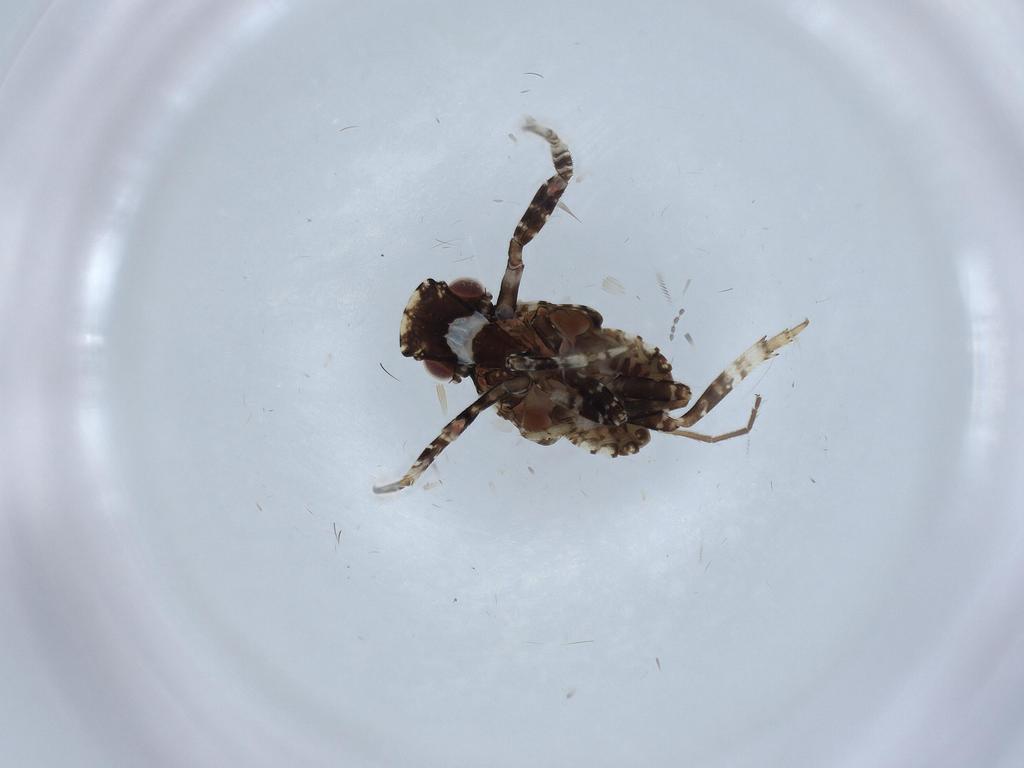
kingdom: Animalia
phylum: Arthropoda
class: Insecta
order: Hemiptera
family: Fulgoridae
